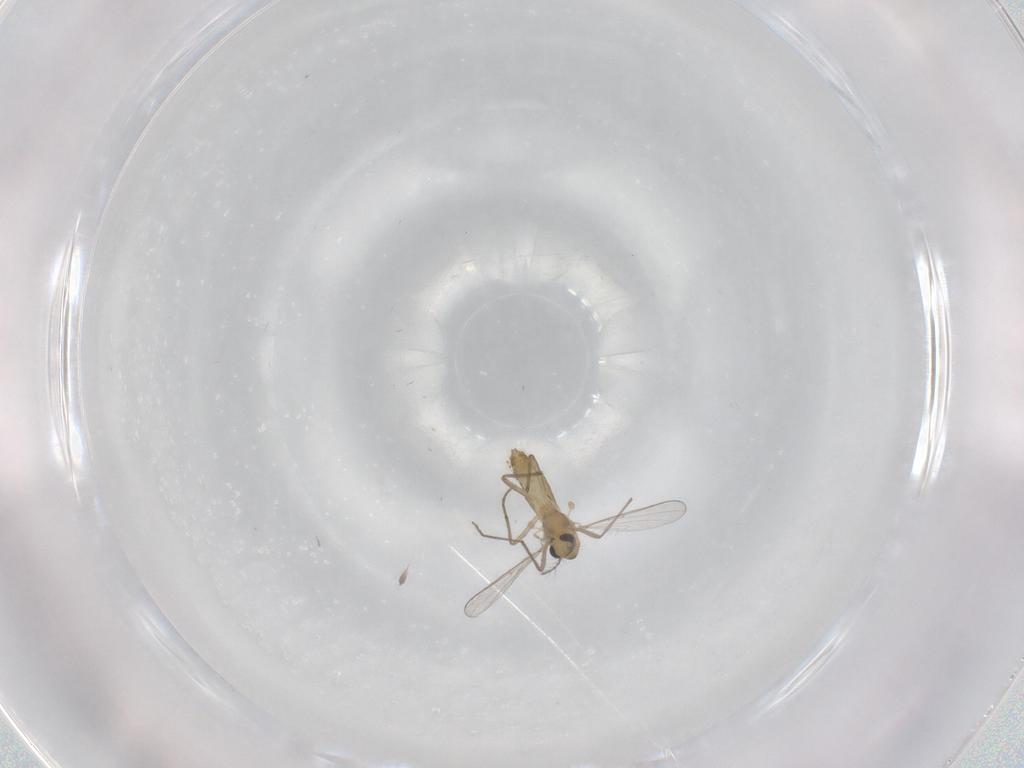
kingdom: Animalia
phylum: Arthropoda
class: Insecta
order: Diptera
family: Chironomidae
